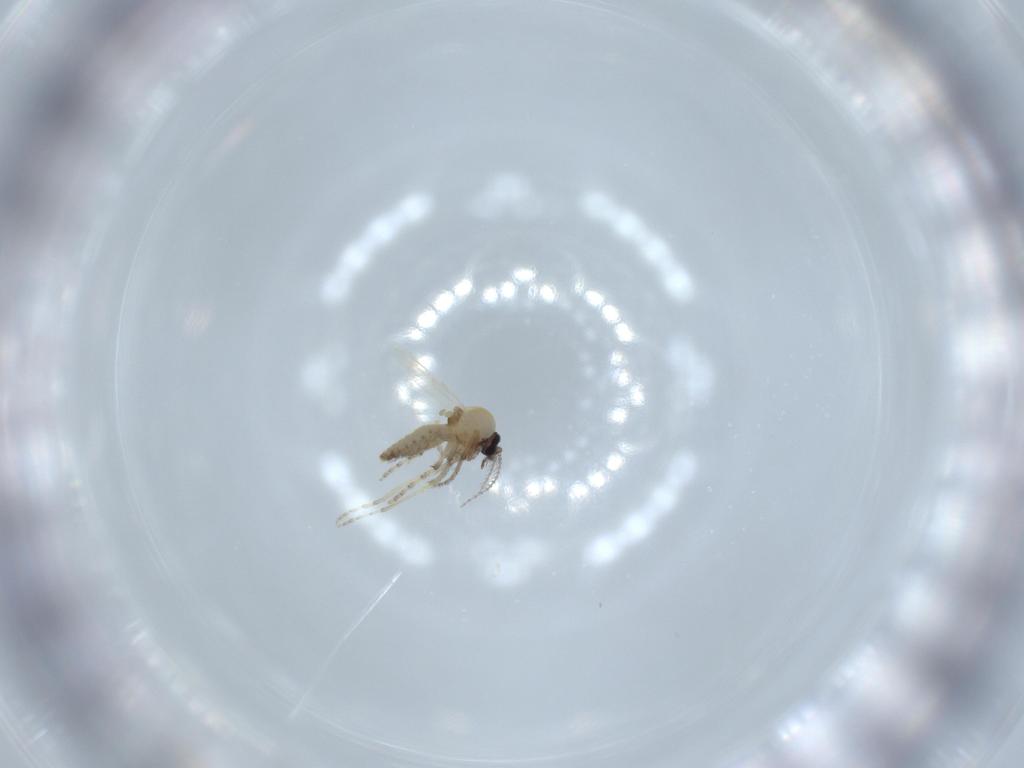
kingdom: Animalia
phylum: Arthropoda
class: Insecta
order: Diptera
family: Ceratopogonidae
